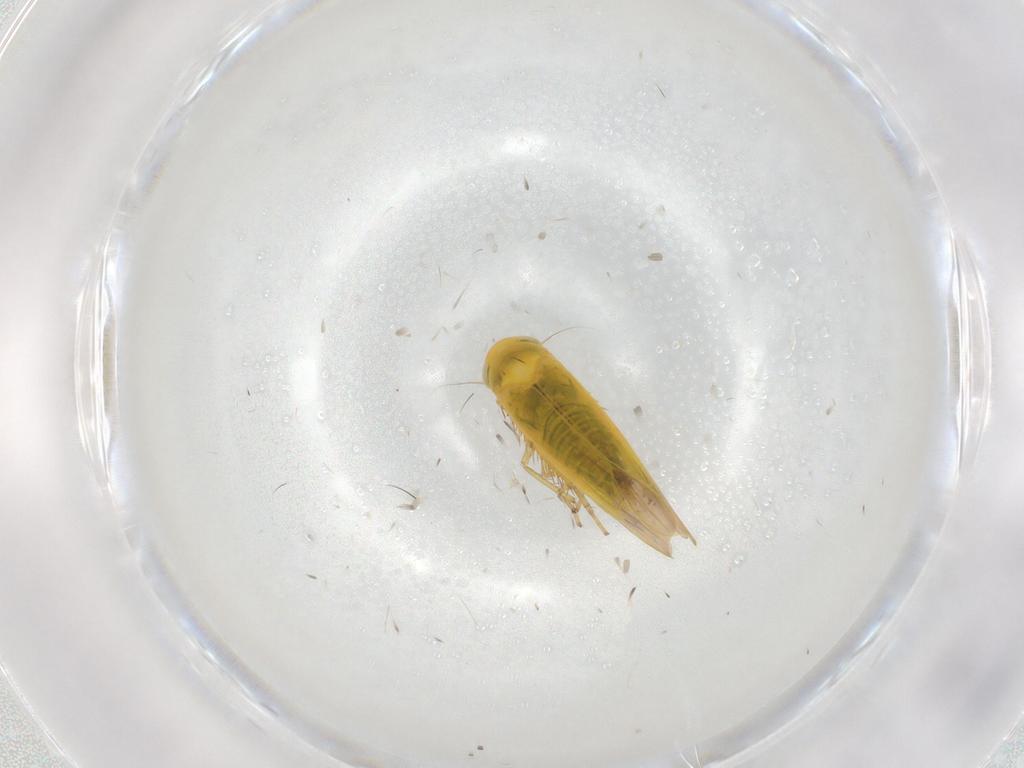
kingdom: Animalia
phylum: Arthropoda
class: Insecta
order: Hemiptera
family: Cicadellidae
